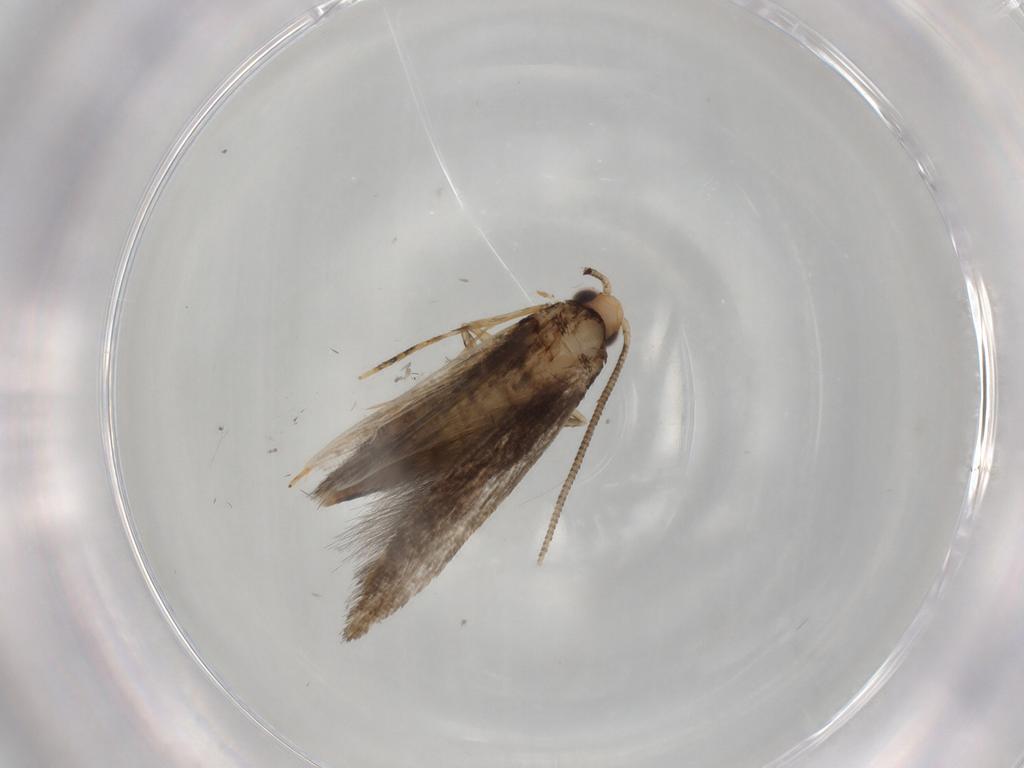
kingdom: Animalia
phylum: Arthropoda
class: Insecta
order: Lepidoptera
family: Tineidae
